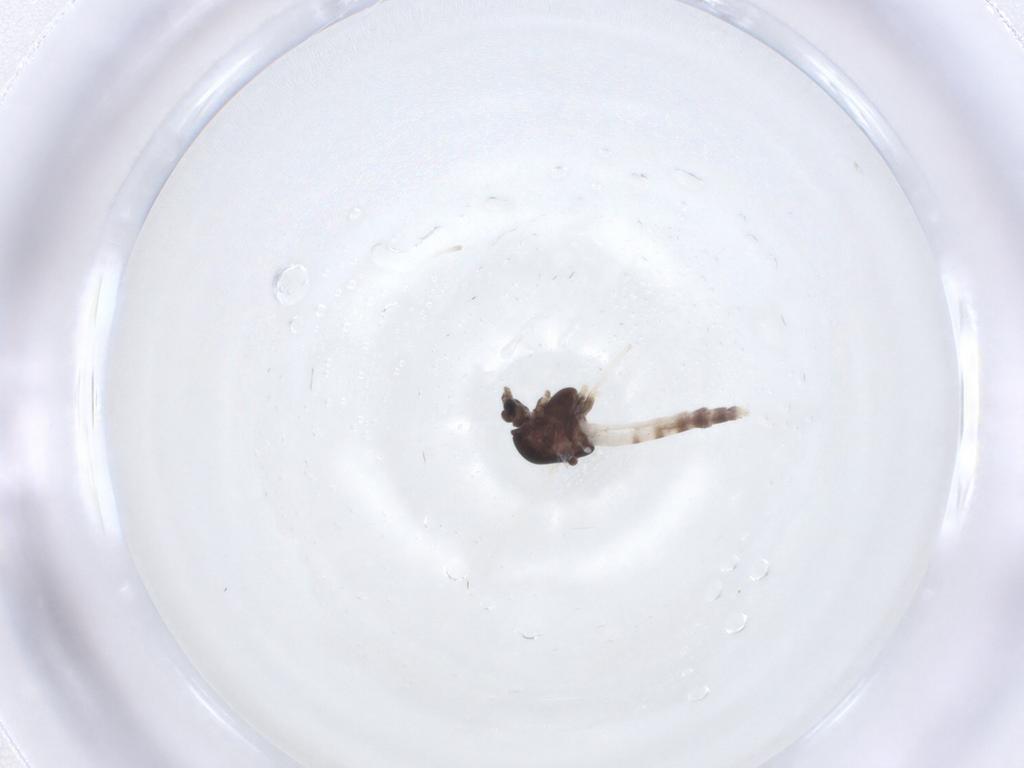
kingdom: Animalia
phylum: Arthropoda
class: Insecta
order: Diptera
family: Chironomidae
